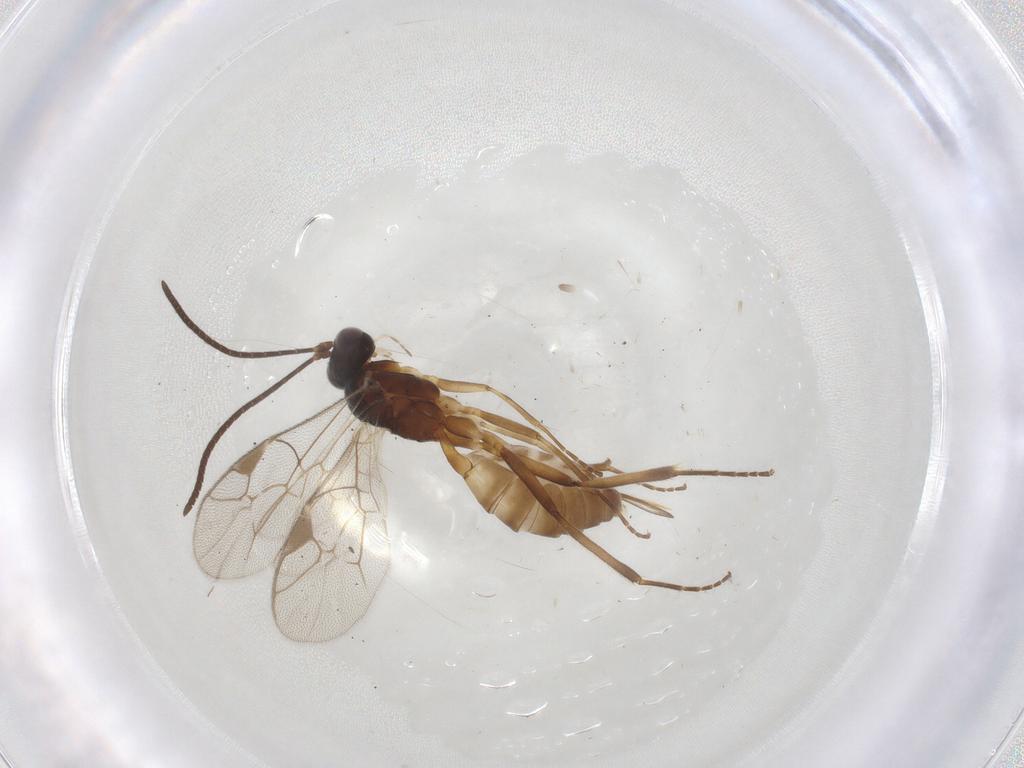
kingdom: Animalia
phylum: Arthropoda
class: Insecta
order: Hymenoptera
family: Ichneumonidae
